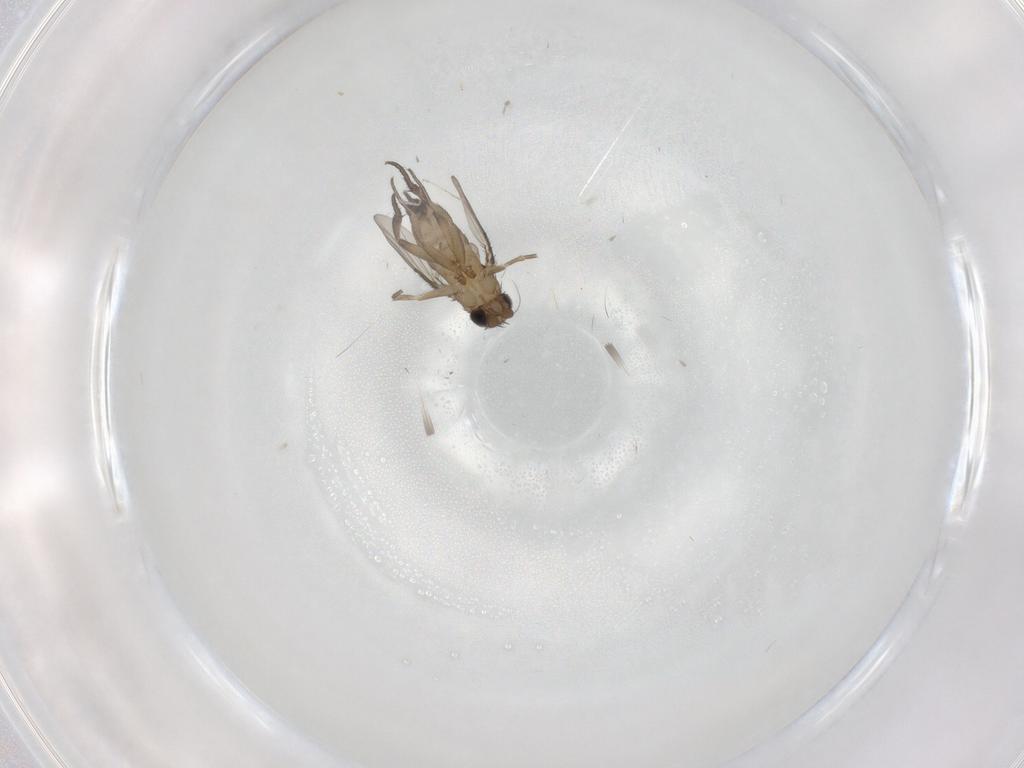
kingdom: Animalia
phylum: Arthropoda
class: Insecta
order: Diptera
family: Phoridae
